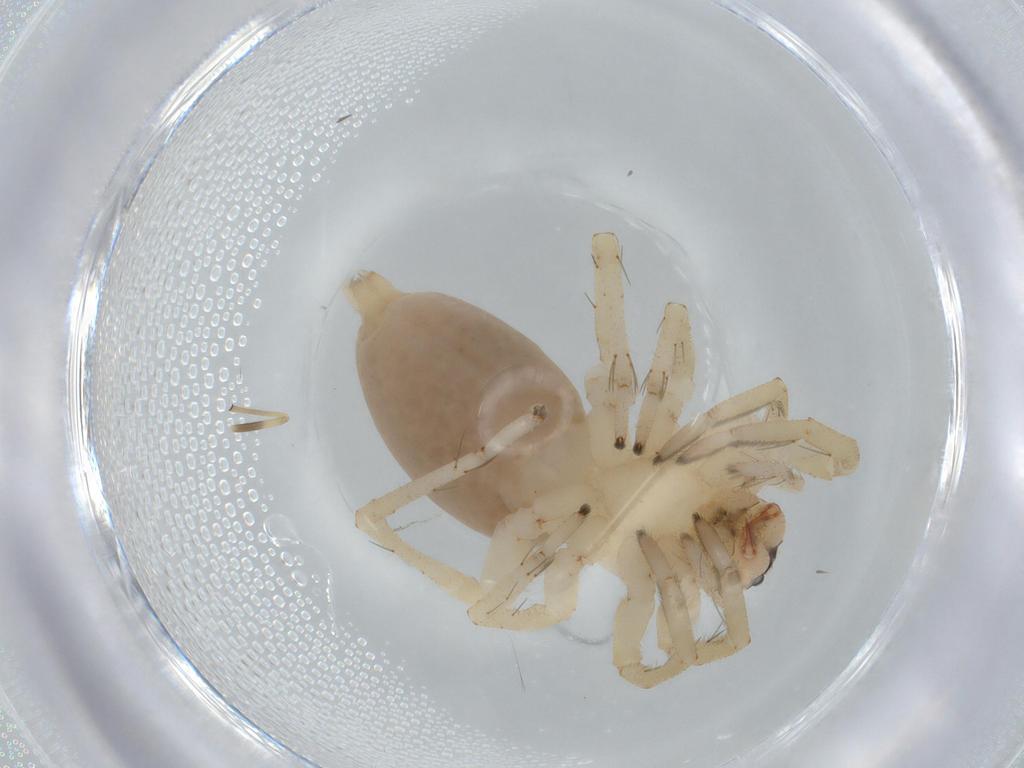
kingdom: Animalia
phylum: Arthropoda
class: Arachnida
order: Araneae
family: Linyphiidae
